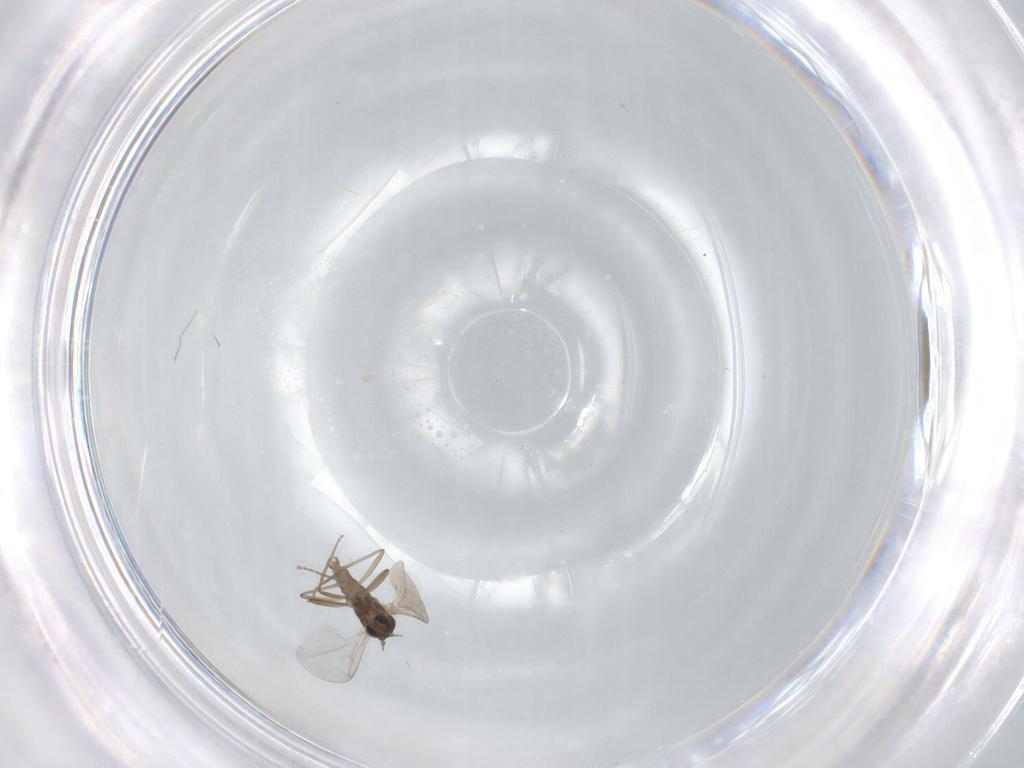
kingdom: Animalia
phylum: Arthropoda
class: Insecta
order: Diptera
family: Cecidomyiidae
